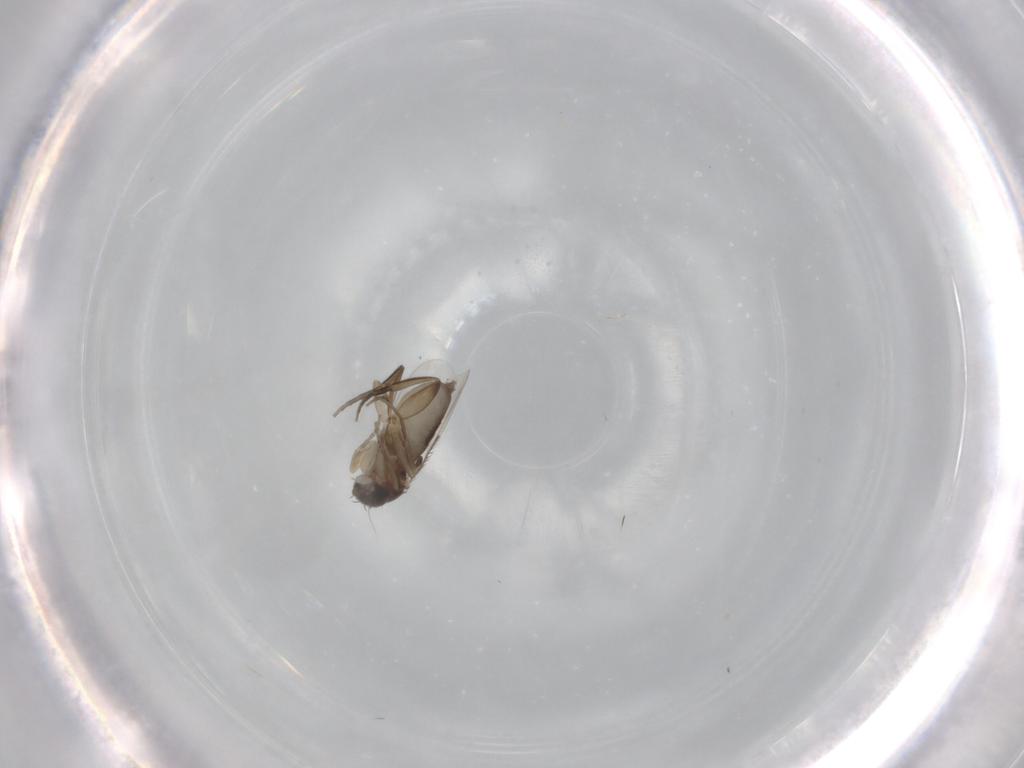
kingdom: Animalia
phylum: Arthropoda
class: Insecta
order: Diptera
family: Phoridae
